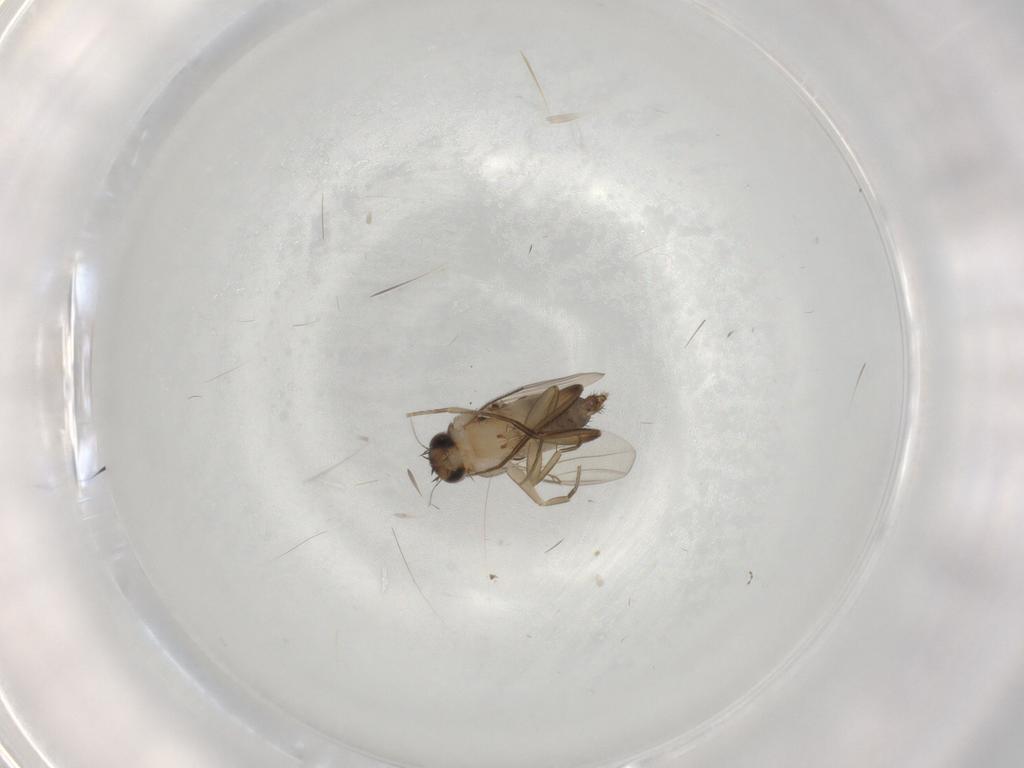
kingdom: Animalia
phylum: Arthropoda
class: Insecta
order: Diptera
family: Phoridae
